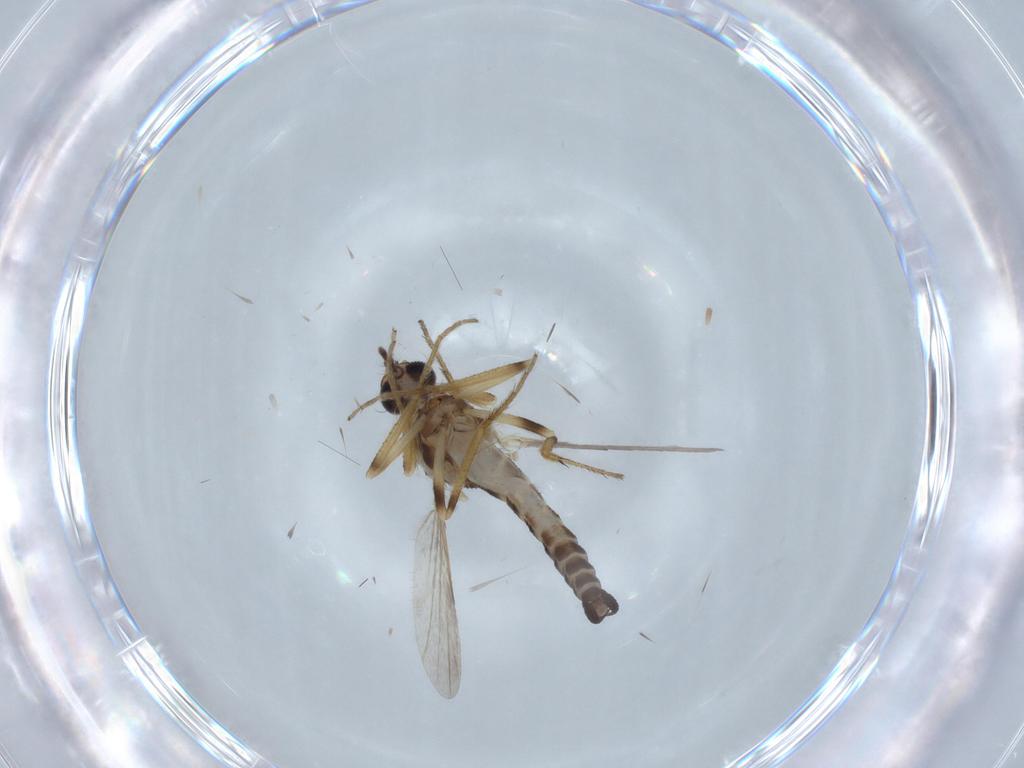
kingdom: Animalia
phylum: Arthropoda
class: Insecta
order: Diptera
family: Ceratopogonidae
